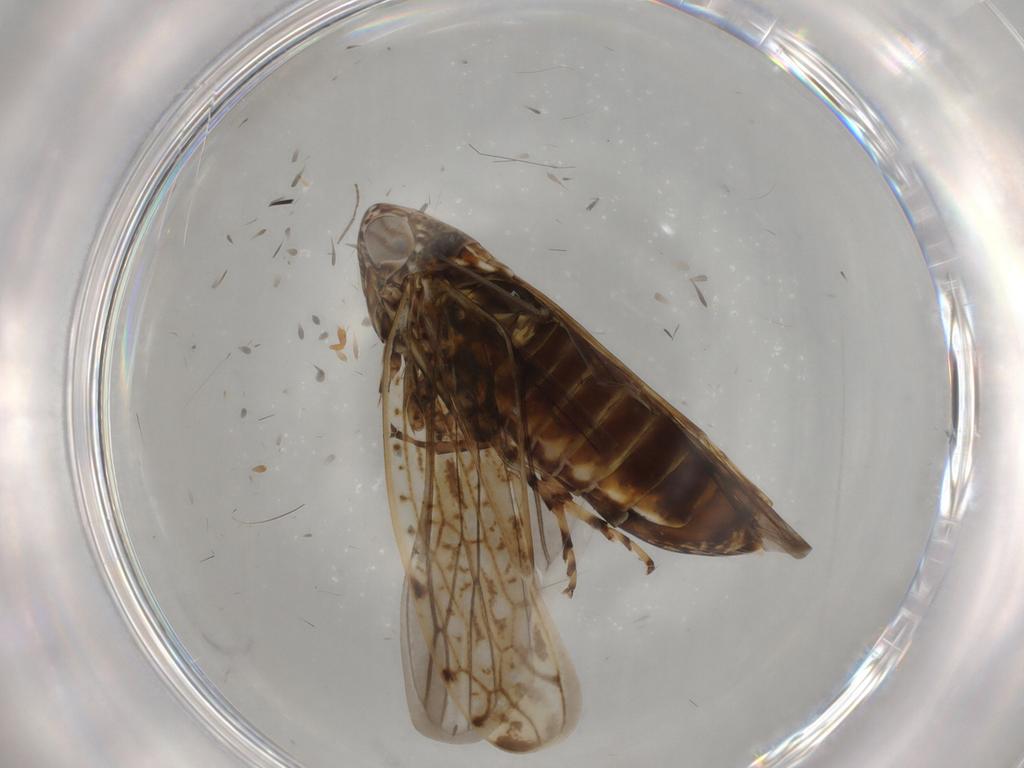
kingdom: Animalia
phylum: Arthropoda
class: Insecta
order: Hemiptera
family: Cicadellidae
